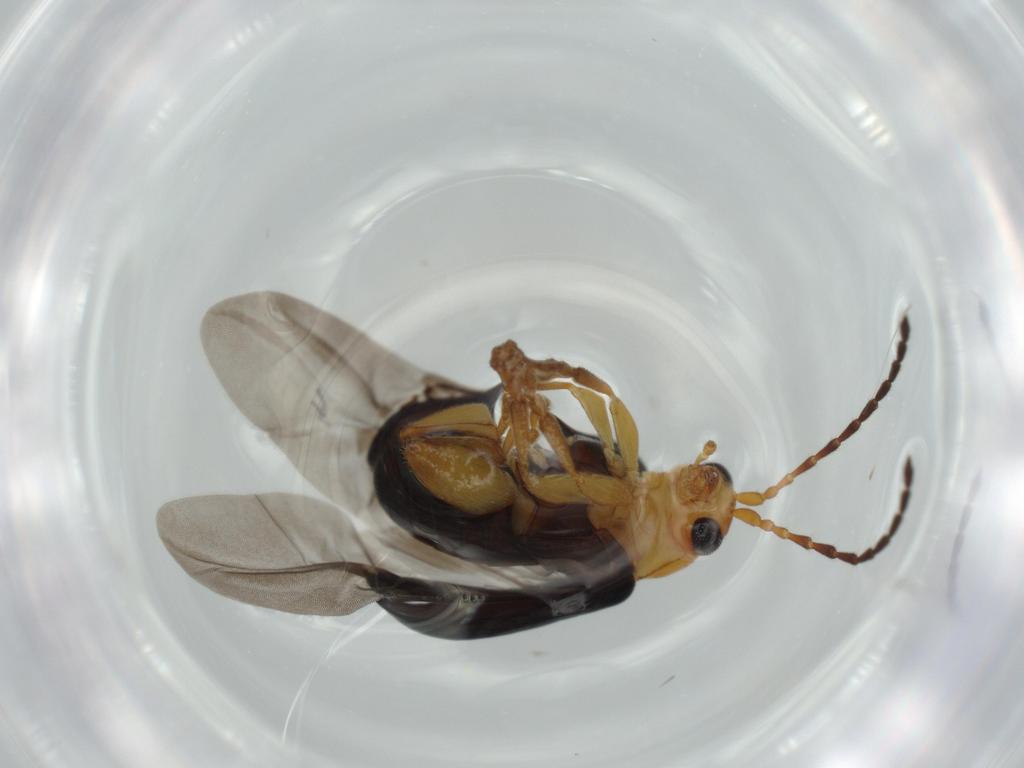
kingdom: Animalia
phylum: Arthropoda
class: Insecta
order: Coleoptera
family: Chrysomelidae
